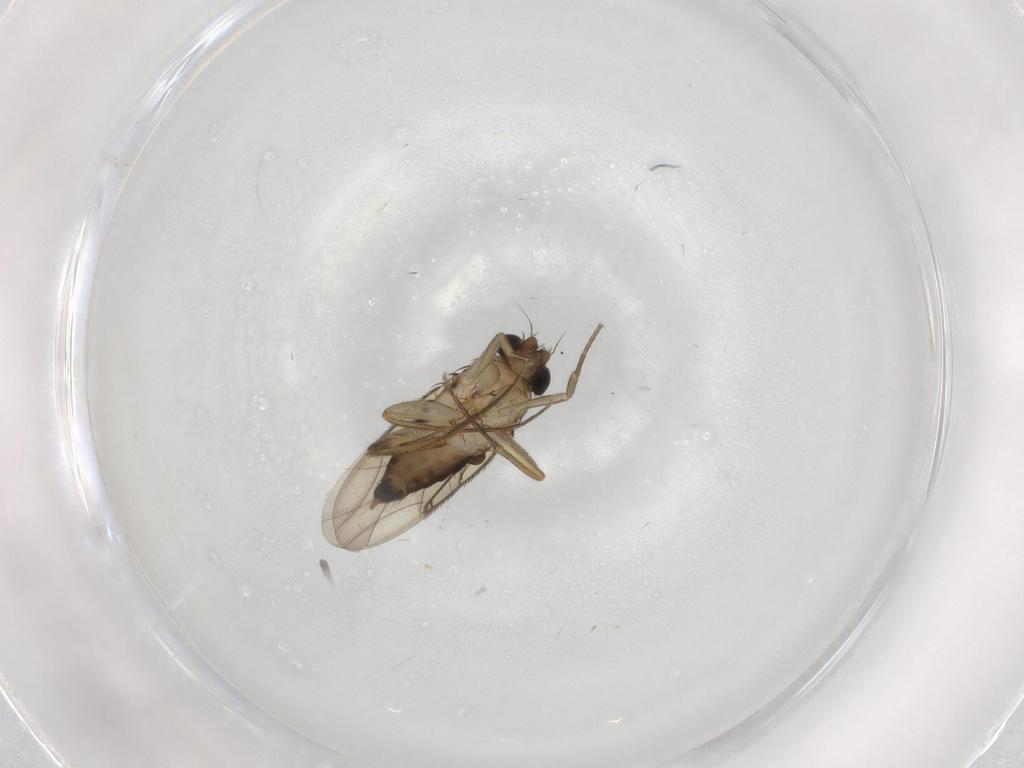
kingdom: Animalia
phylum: Arthropoda
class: Insecta
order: Diptera
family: Phoridae
